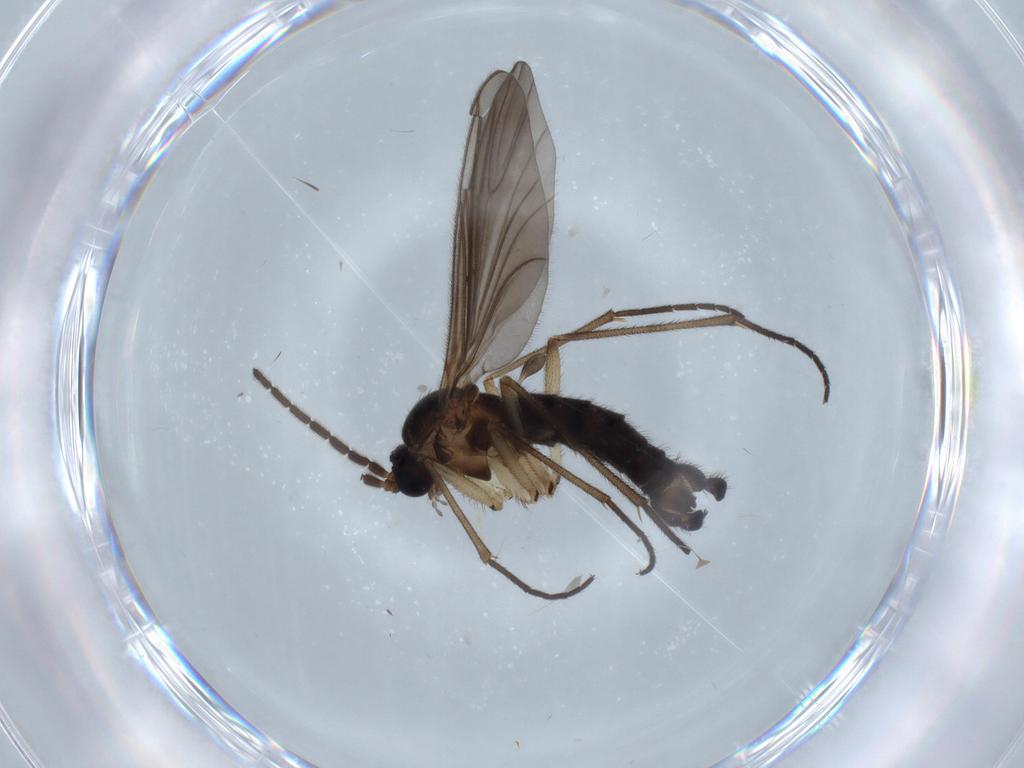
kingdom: Animalia
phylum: Arthropoda
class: Insecta
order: Diptera
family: Sciaridae
